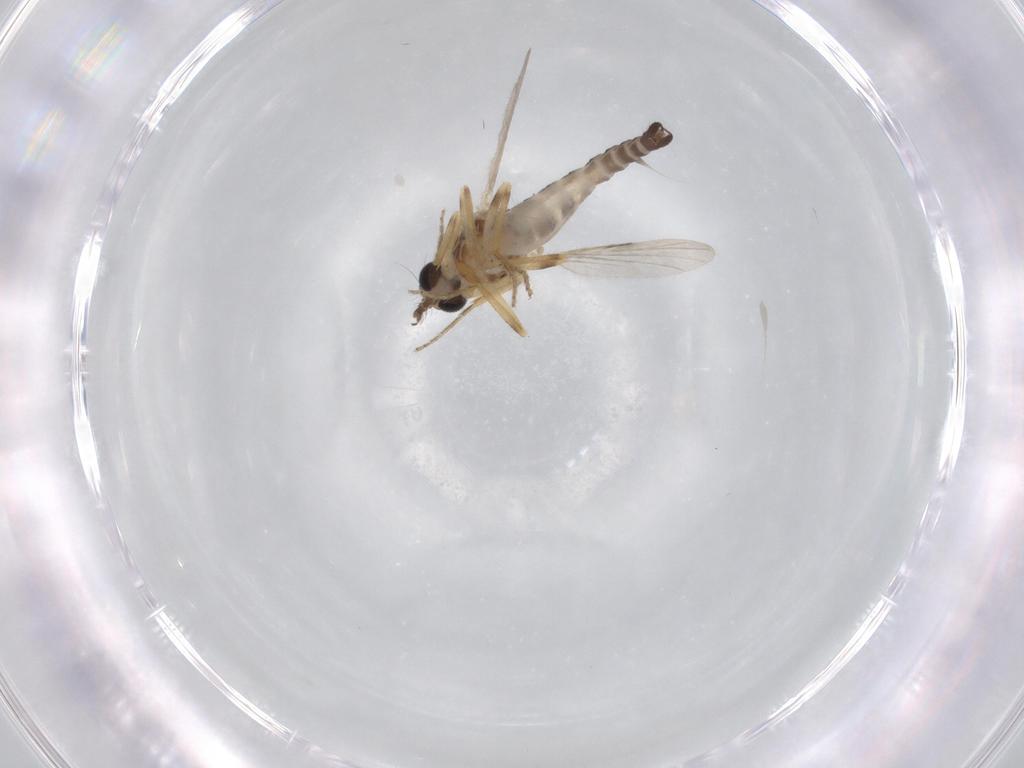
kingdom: Animalia
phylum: Arthropoda
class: Insecta
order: Diptera
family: Ceratopogonidae
